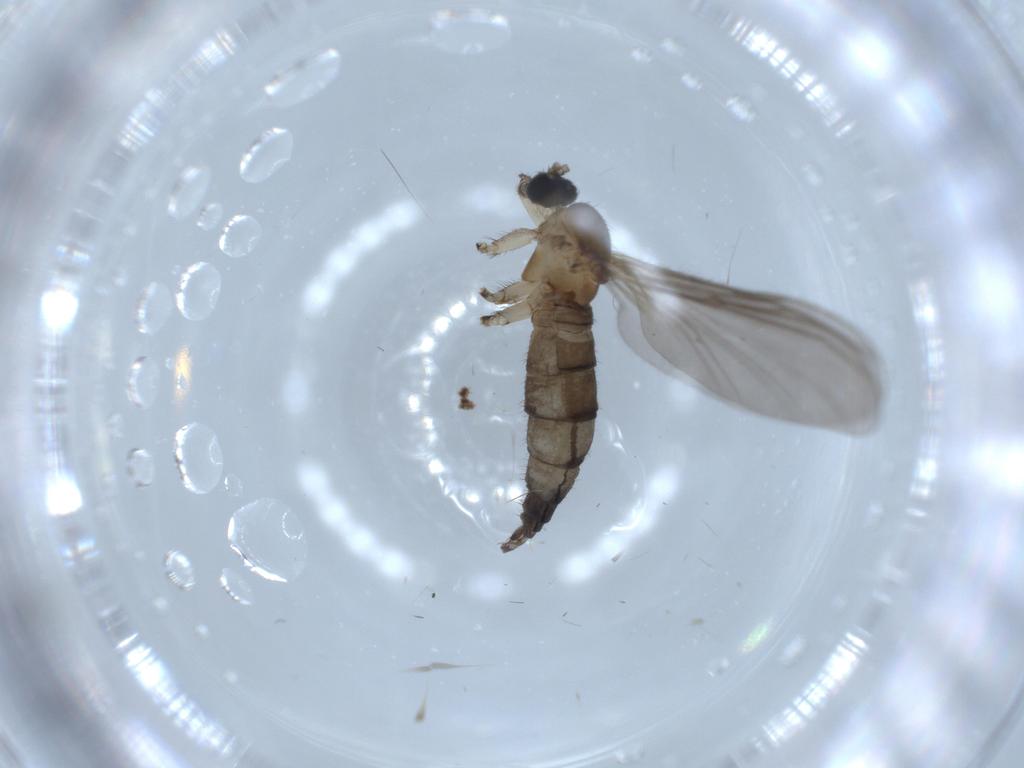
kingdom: Animalia
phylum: Arthropoda
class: Insecta
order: Diptera
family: Sciaridae
